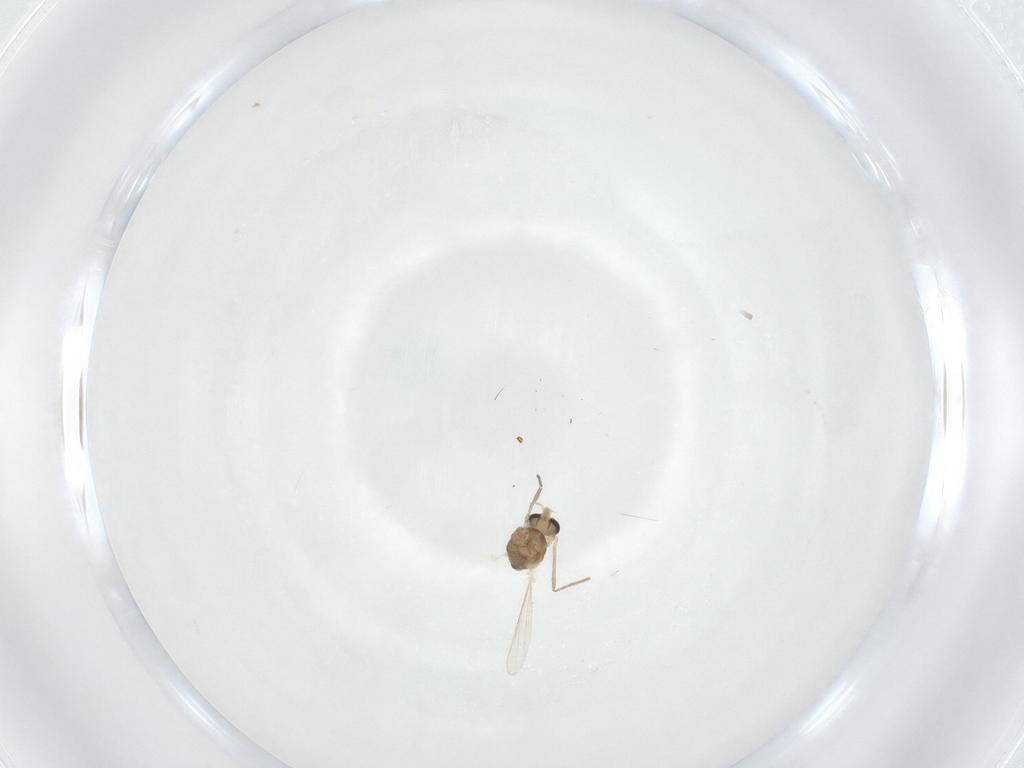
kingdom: Animalia
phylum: Arthropoda
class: Insecta
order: Diptera
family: Chironomidae
